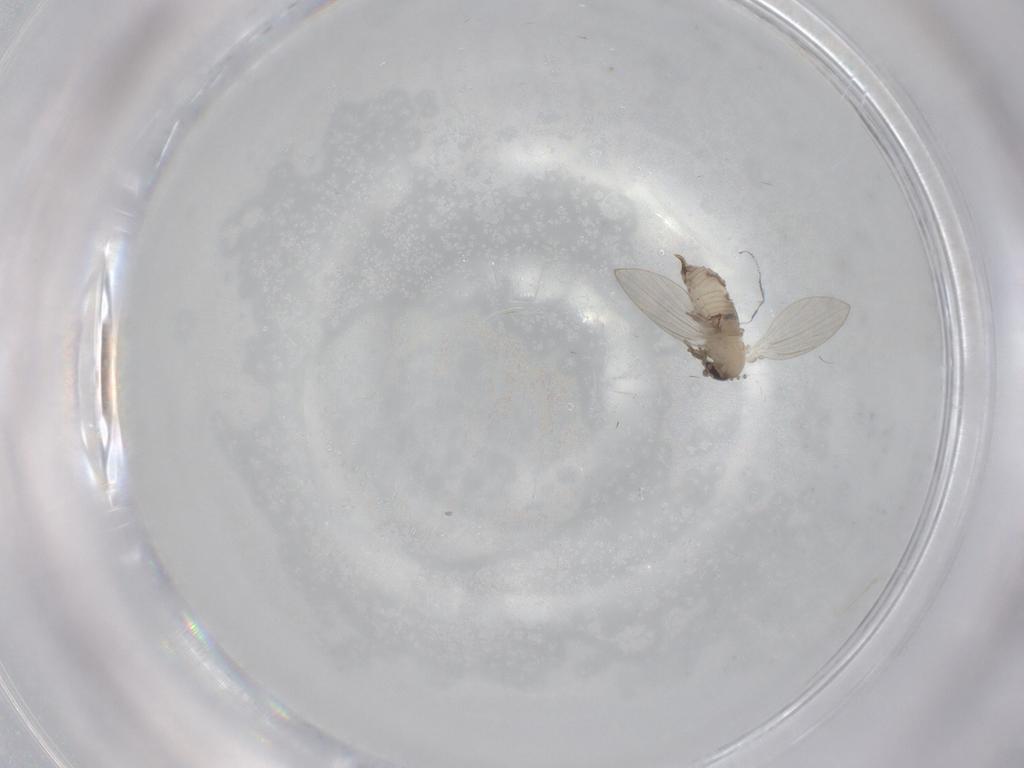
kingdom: Animalia
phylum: Arthropoda
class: Insecta
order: Diptera
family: Psychodidae
